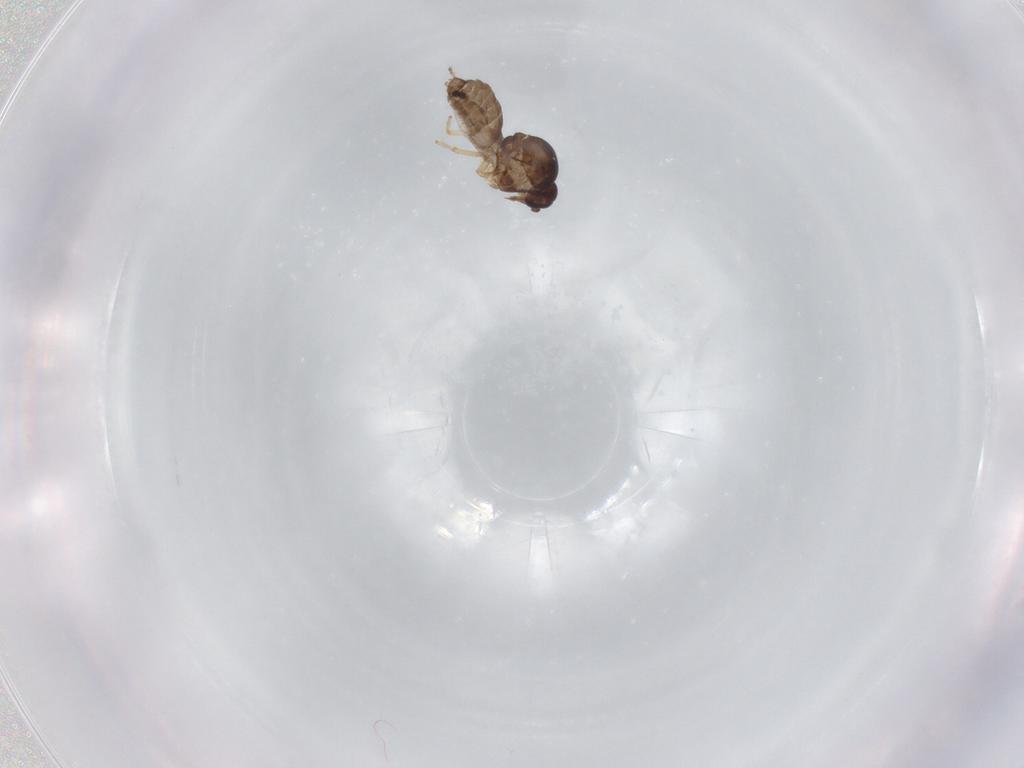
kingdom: Animalia
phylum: Arthropoda
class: Insecta
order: Diptera
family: Ceratopogonidae
